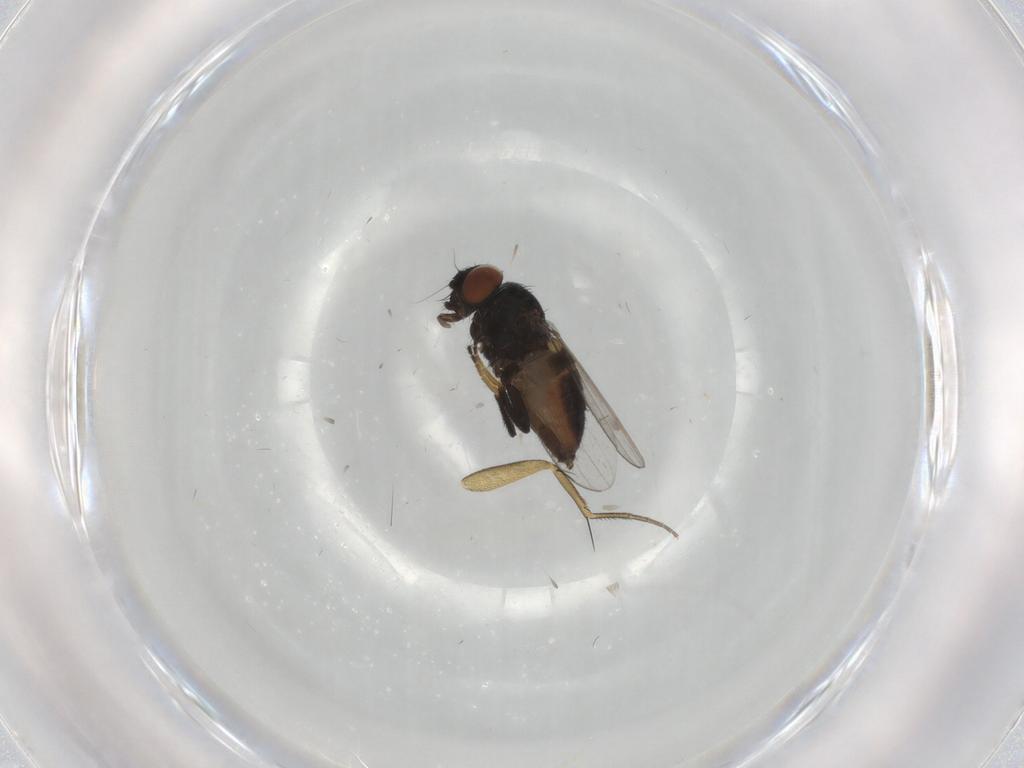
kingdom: Animalia
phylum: Arthropoda
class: Insecta
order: Diptera
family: Milichiidae
